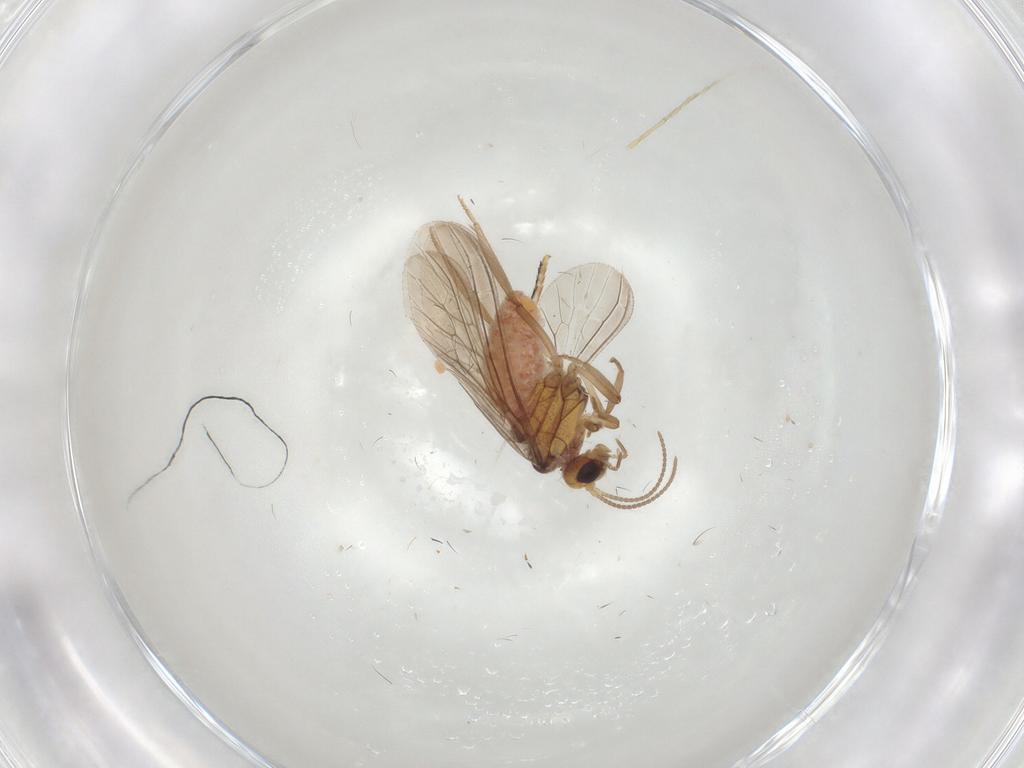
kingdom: Animalia
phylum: Arthropoda
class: Insecta
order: Neuroptera
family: Coniopterygidae
